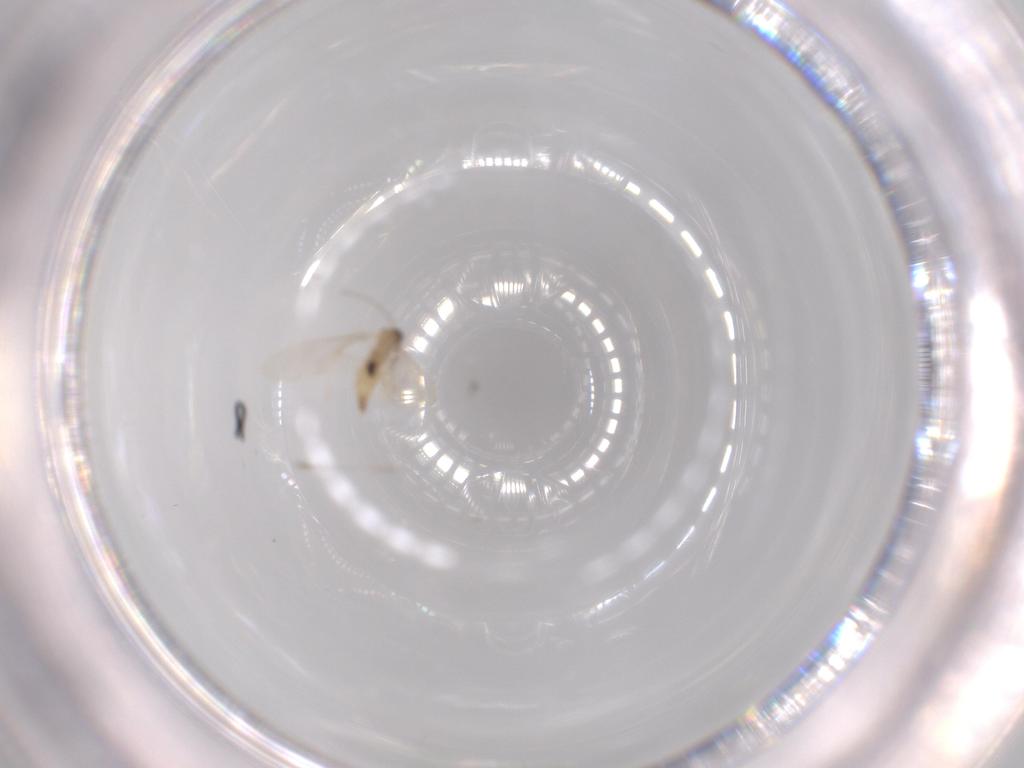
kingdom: Animalia
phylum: Arthropoda
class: Insecta
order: Diptera
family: Cecidomyiidae
